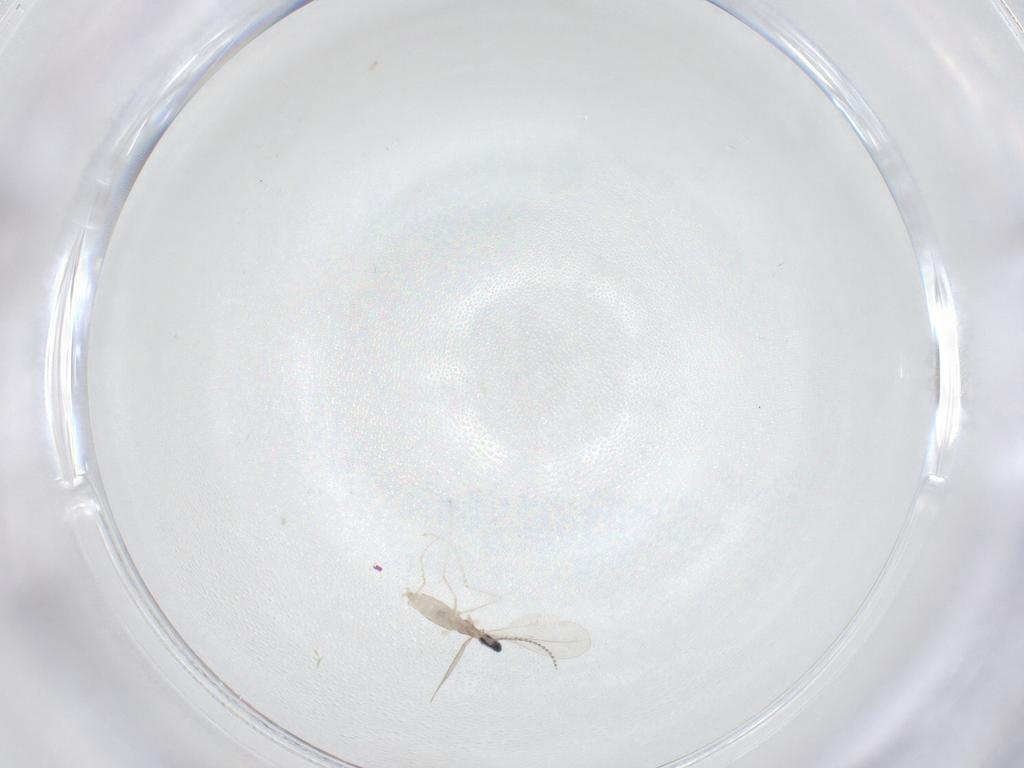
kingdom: Animalia
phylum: Arthropoda
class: Insecta
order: Diptera
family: Cecidomyiidae
